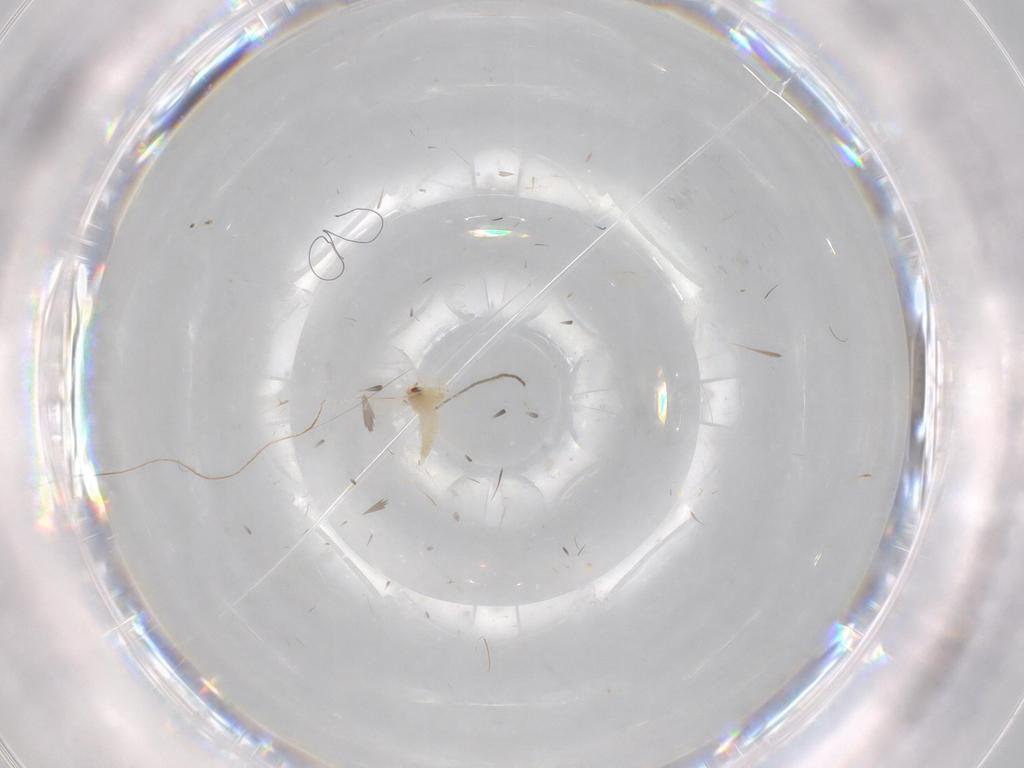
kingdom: Animalia
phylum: Arthropoda
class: Insecta
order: Hemiptera
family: Aleyrodidae
